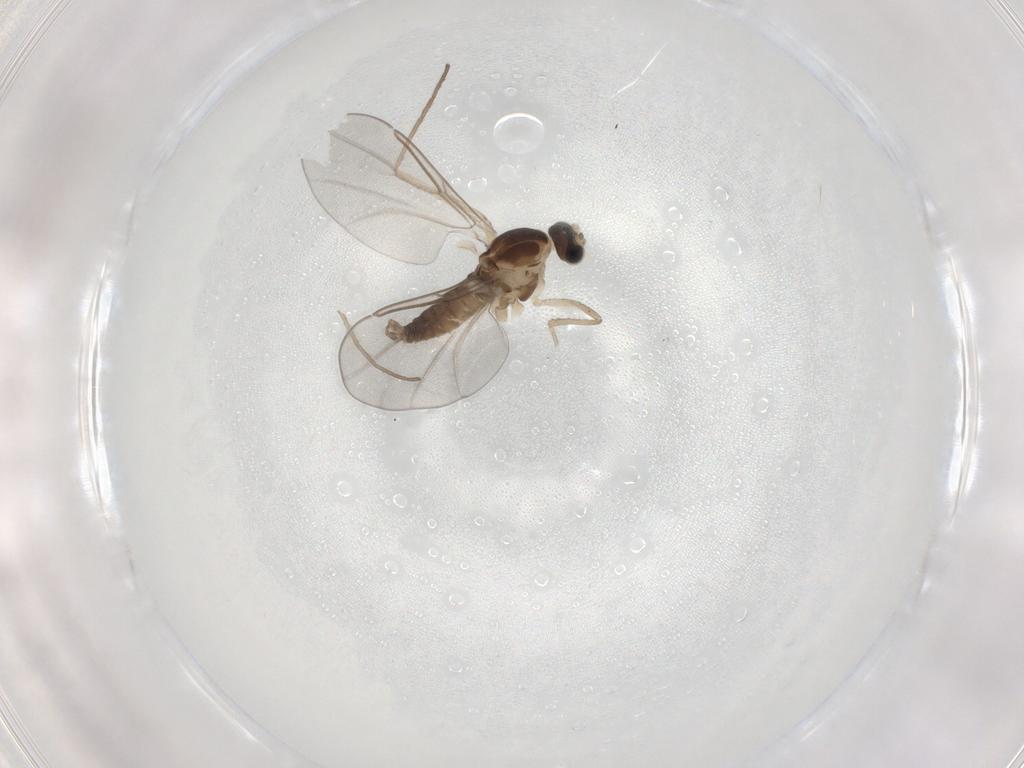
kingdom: Animalia
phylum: Arthropoda
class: Insecta
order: Diptera
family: Cecidomyiidae
